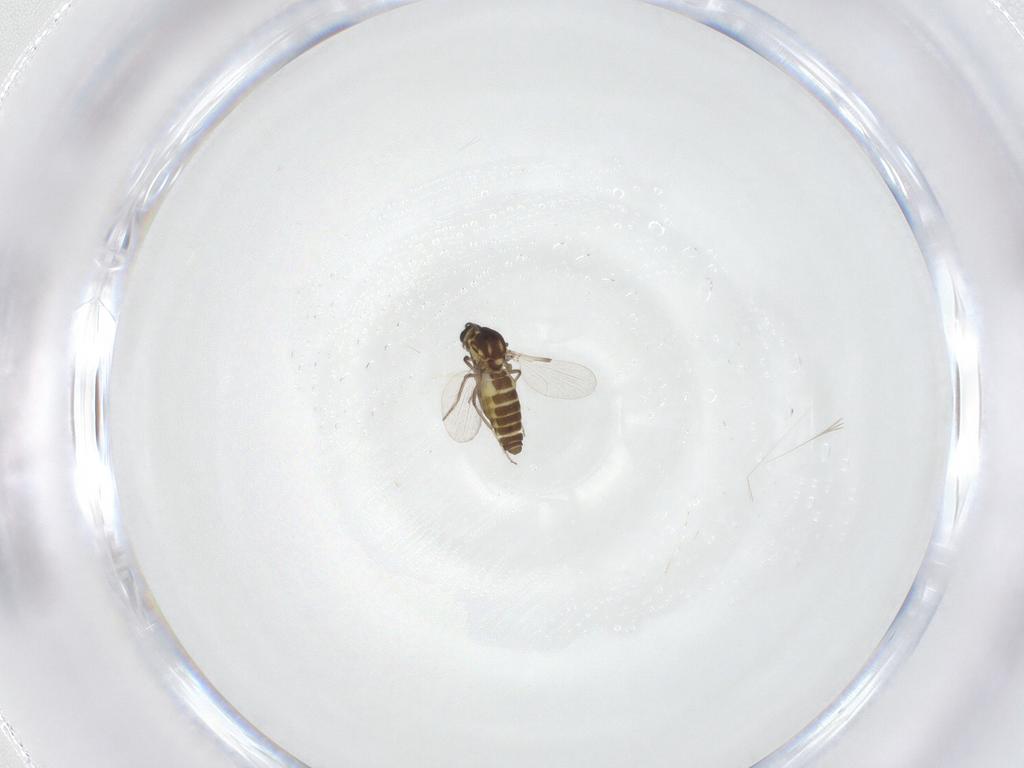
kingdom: Animalia
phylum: Arthropoda
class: Insecta
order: Diptera
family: Ceratopogonidae
